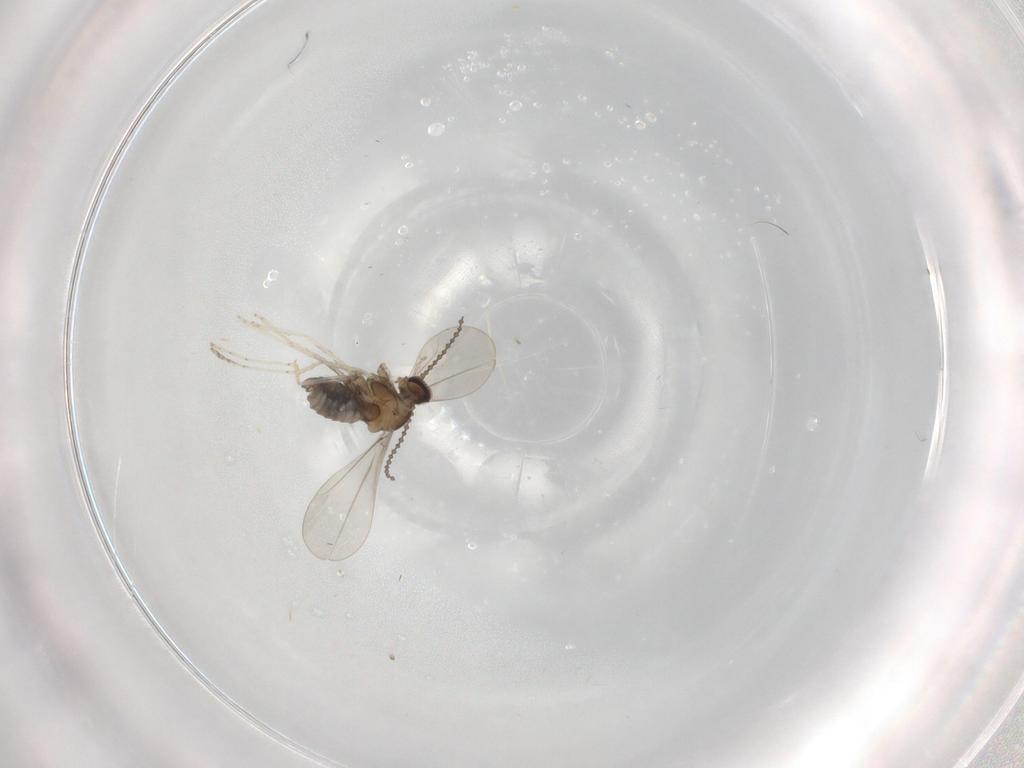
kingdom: Animalia
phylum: Arthropoda
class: Insecta
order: Diptera
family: Cecidomyiidae
